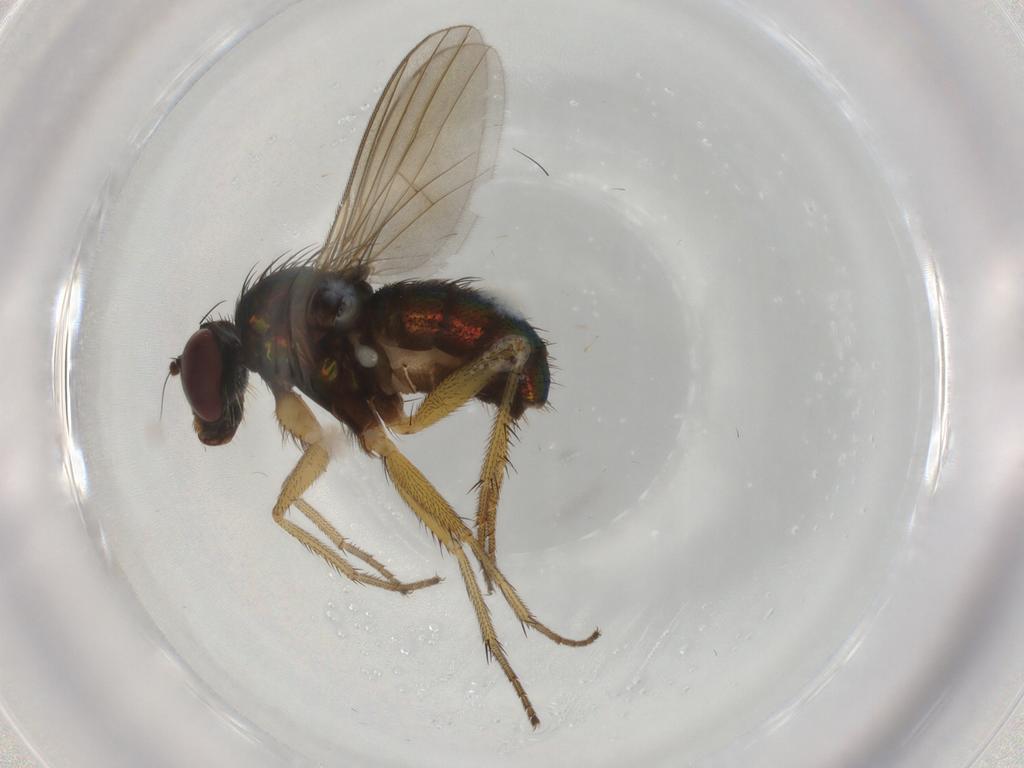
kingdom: Animalia
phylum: Arthropoda
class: Insecta
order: Diptera
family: Dolichopodidae
